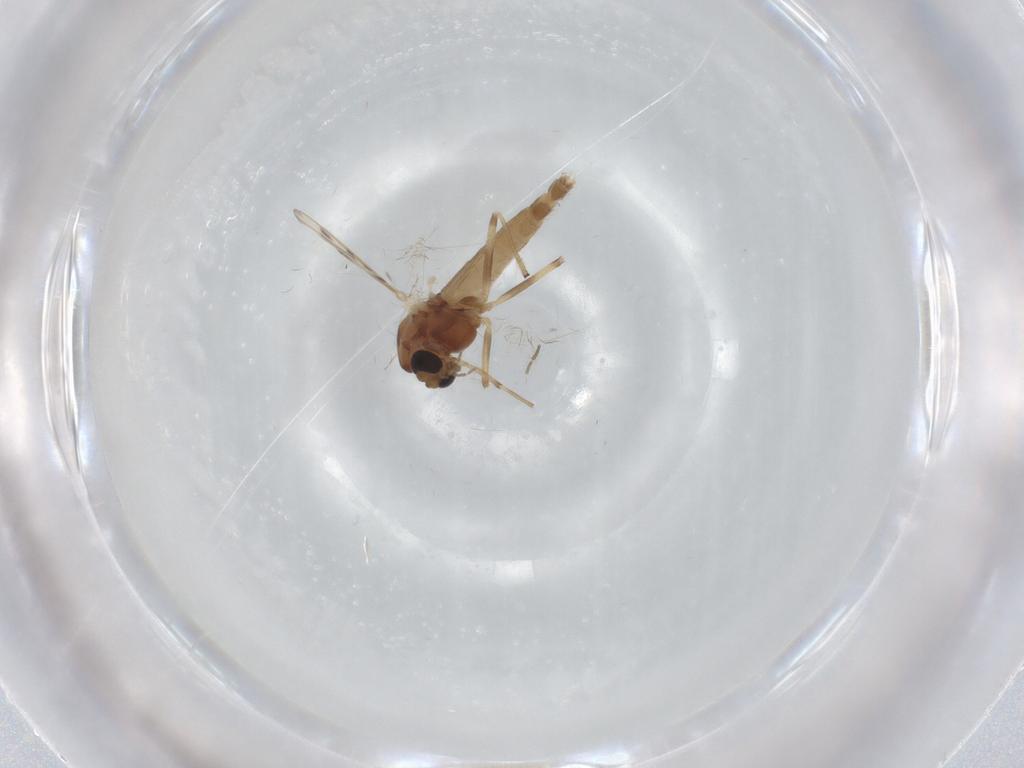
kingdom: Animalia
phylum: Arthropoda
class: Insecta
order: Diptera
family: Chironomidae
